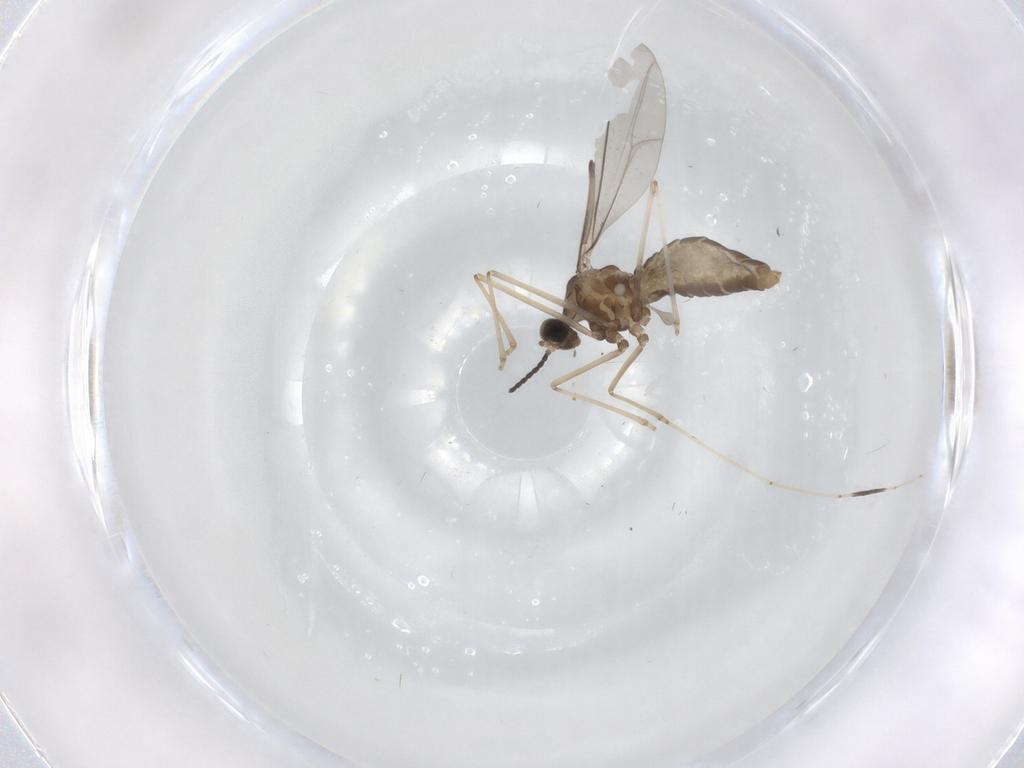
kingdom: Animalia
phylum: Arthropoda
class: Insecta
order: Diptera
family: Cecidomyiidae
